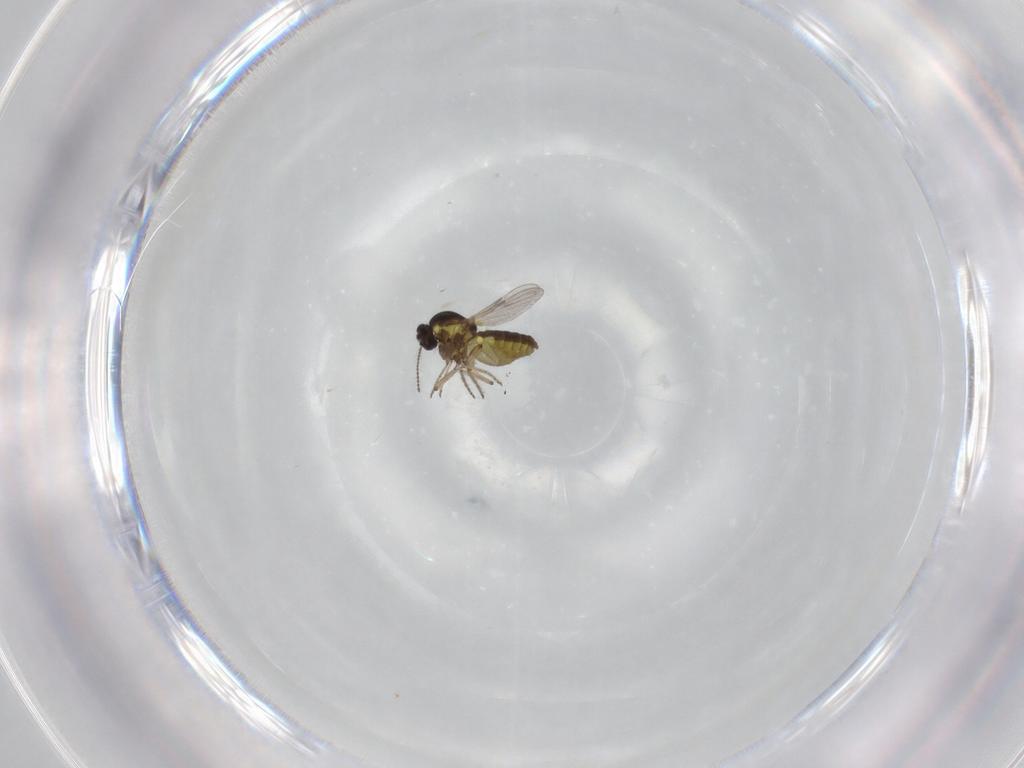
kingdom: Animalia
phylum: Arthropoda
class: Insecta
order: Diptera
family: Ceratopogonidae
